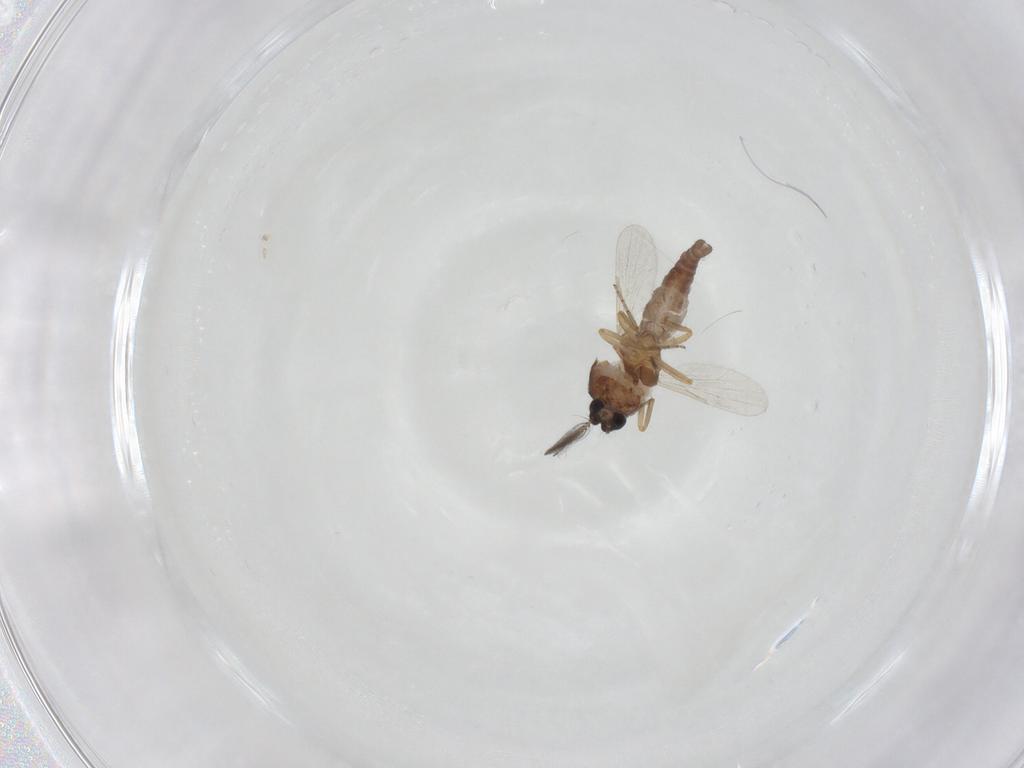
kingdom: Animalia
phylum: Arthropoda
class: Insecta
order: Diptera
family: Ceratopogonidae
